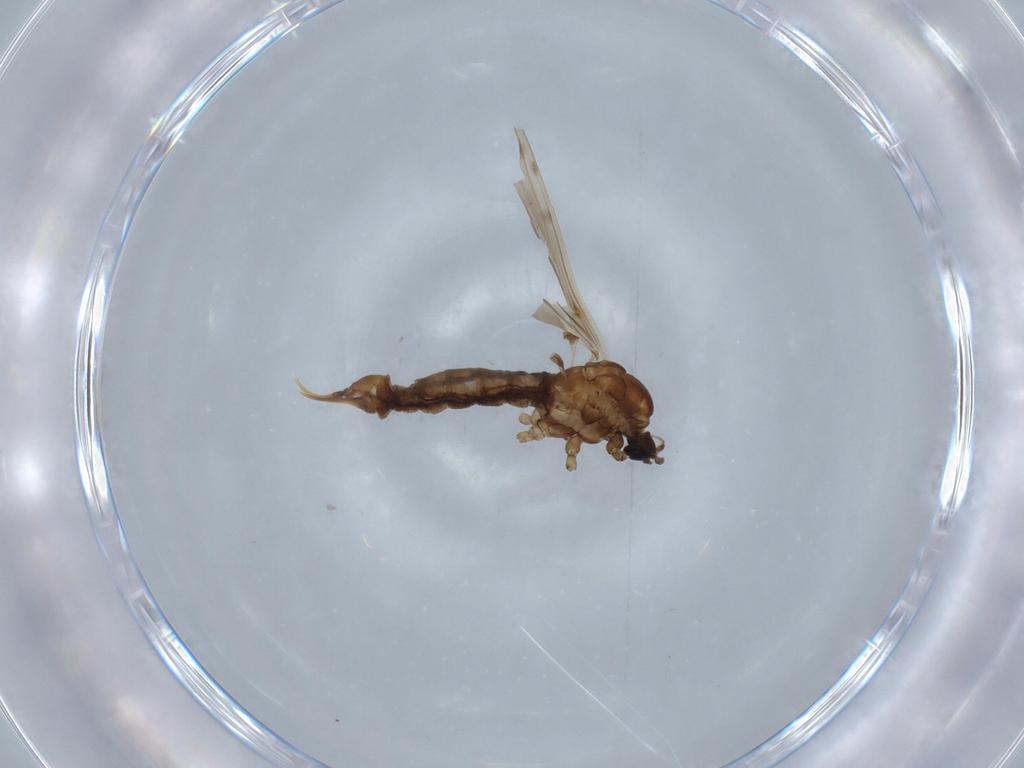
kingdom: Animalia
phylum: Arthropoda
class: Insecta
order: Diptera
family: Limoniidae
